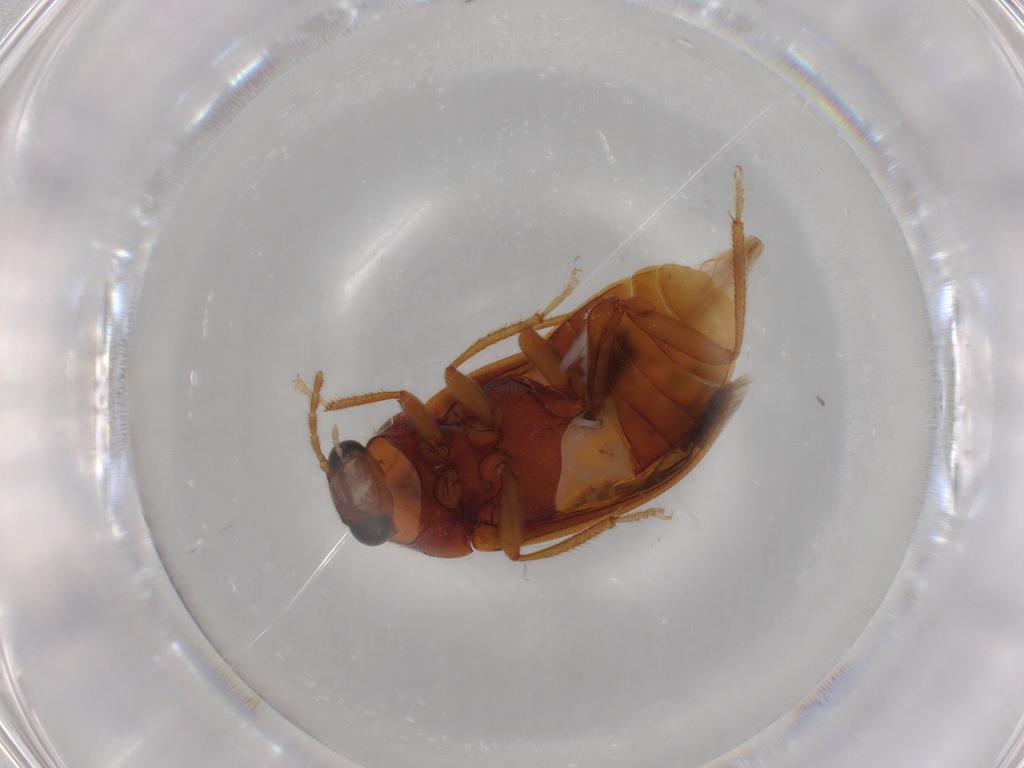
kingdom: Animalia
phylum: Arthropoda
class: Insecta
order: Coleoptera
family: Ptilodactylidae
